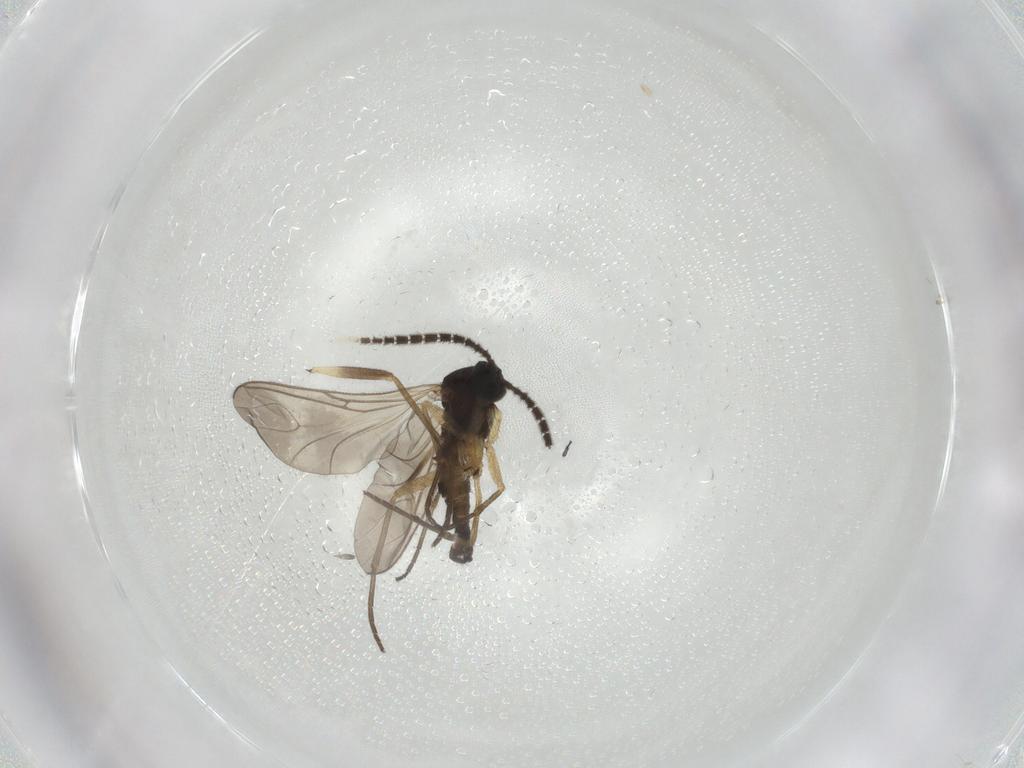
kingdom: Animalia
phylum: Arthropoda
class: Insecta
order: Diptera
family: Sciaridae
